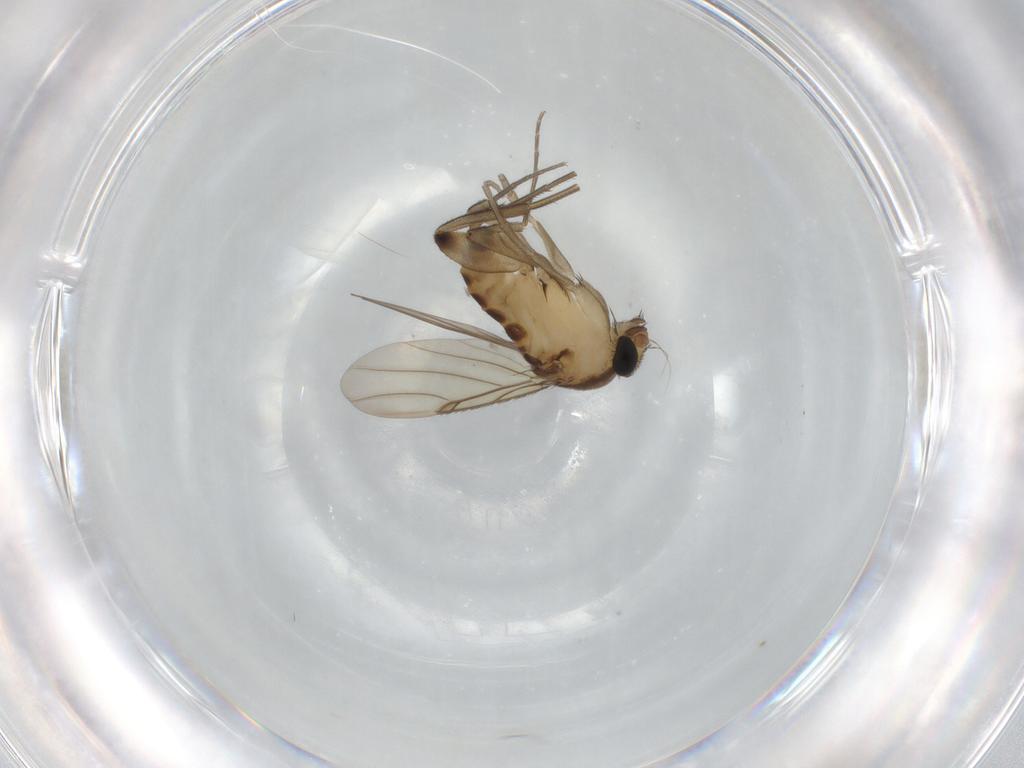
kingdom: Animalia
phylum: Arthropoda
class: Insecta
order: Diptera
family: Phoridae
